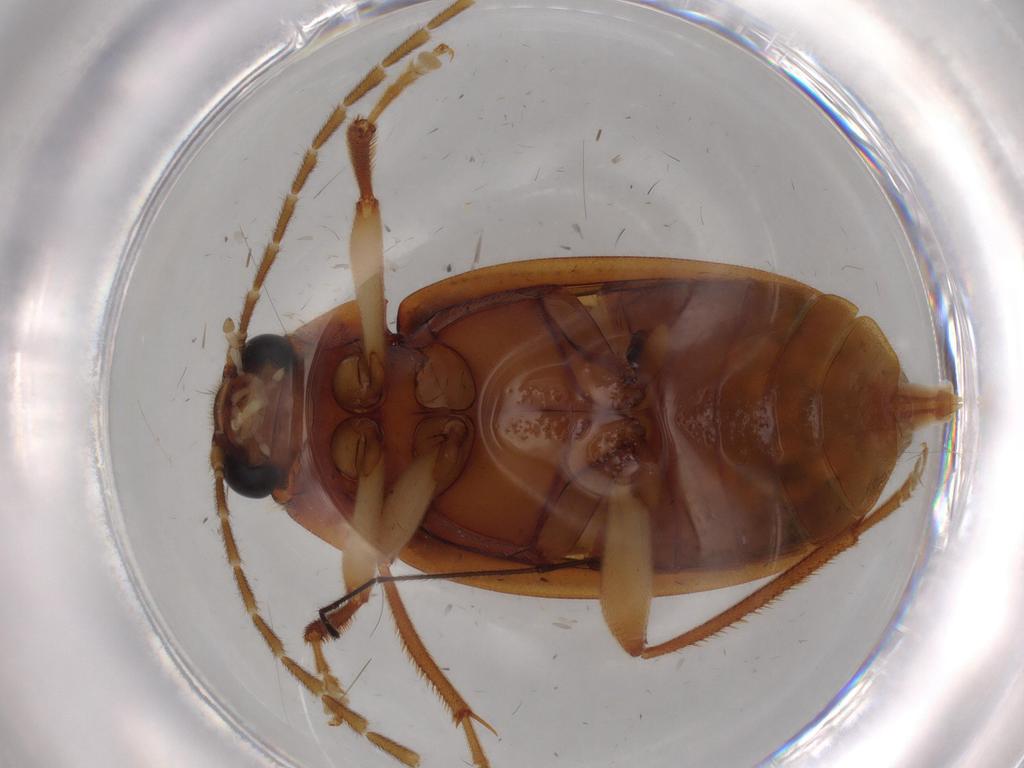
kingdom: Animalia
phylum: Arthropoda
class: Insecta
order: Coleoptera
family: Ptilodactylidae
